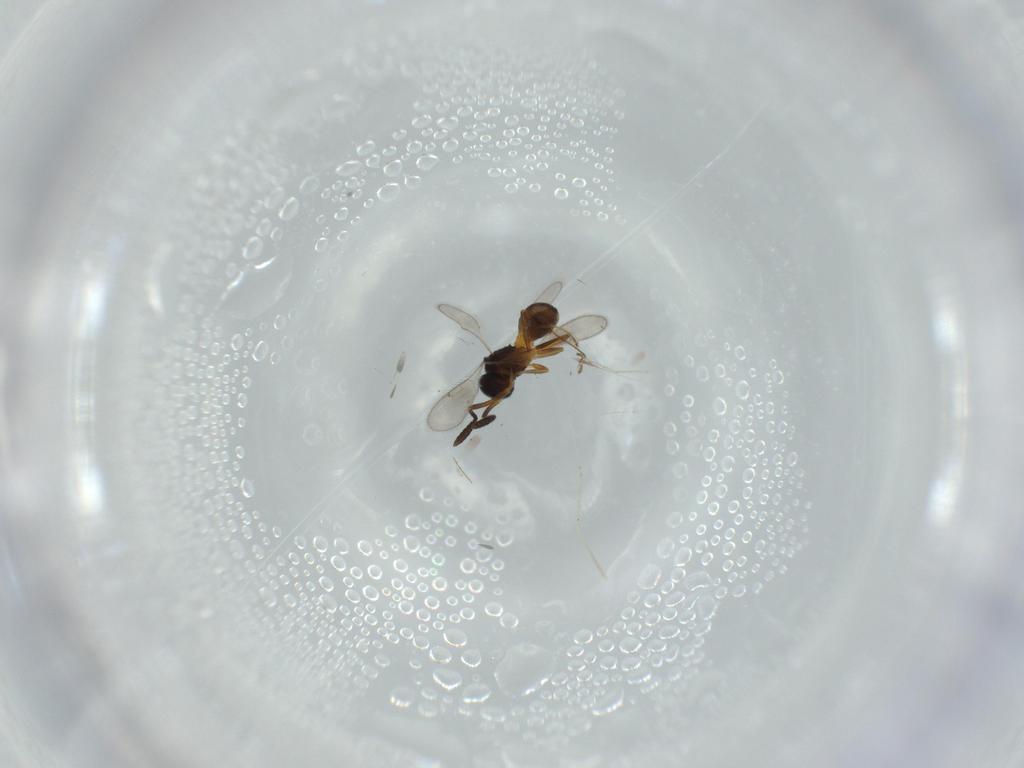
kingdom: Animalia
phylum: Arthropoda
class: Insecta
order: Hymenoptera
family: Scelionidae
